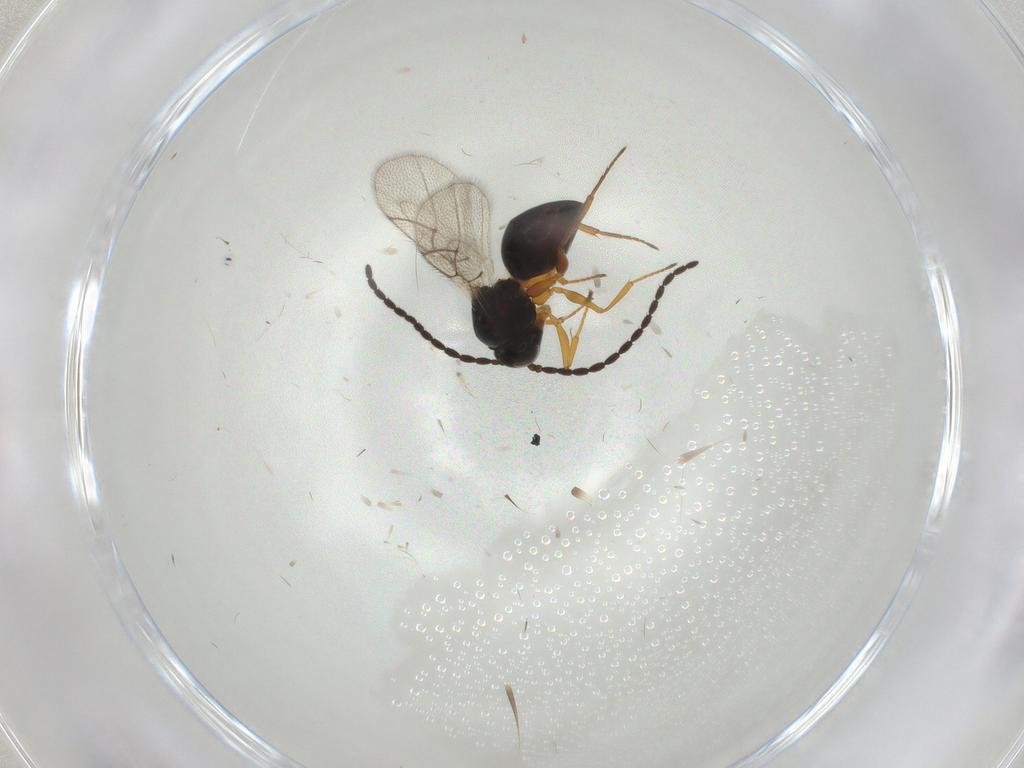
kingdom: Animalia
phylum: Arthropoda
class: Insecta
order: Hymenoptera
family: Figitidae
